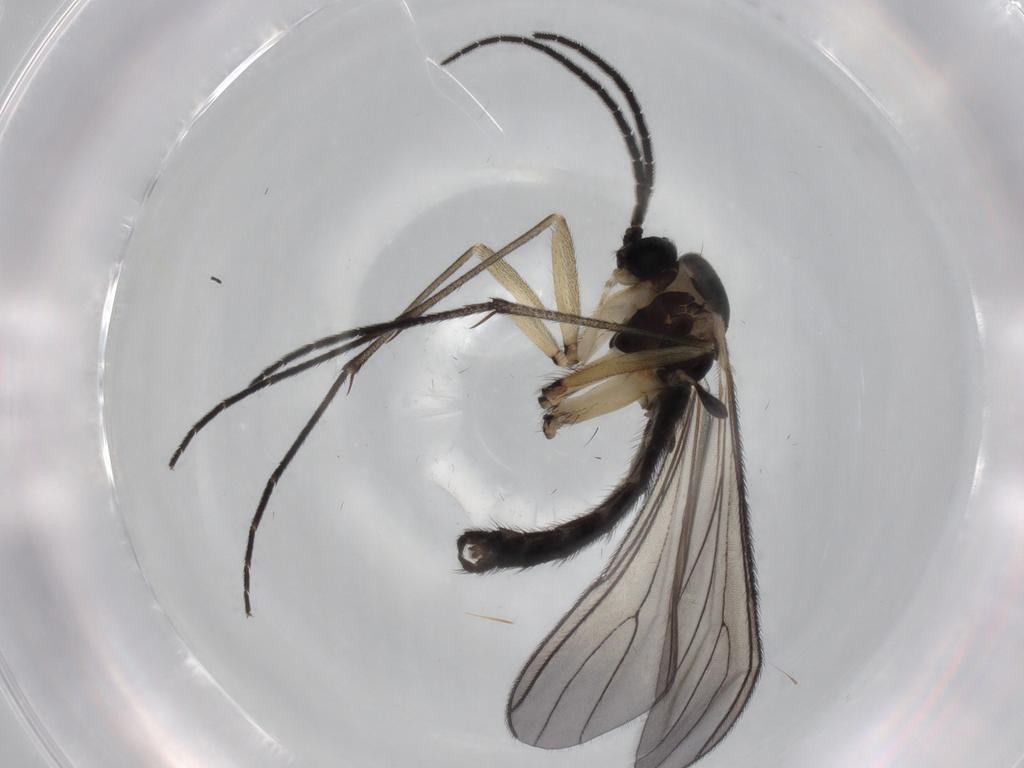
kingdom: Animalia
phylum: Arthropoda
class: Insecta
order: Diptera
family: Sciaridae
